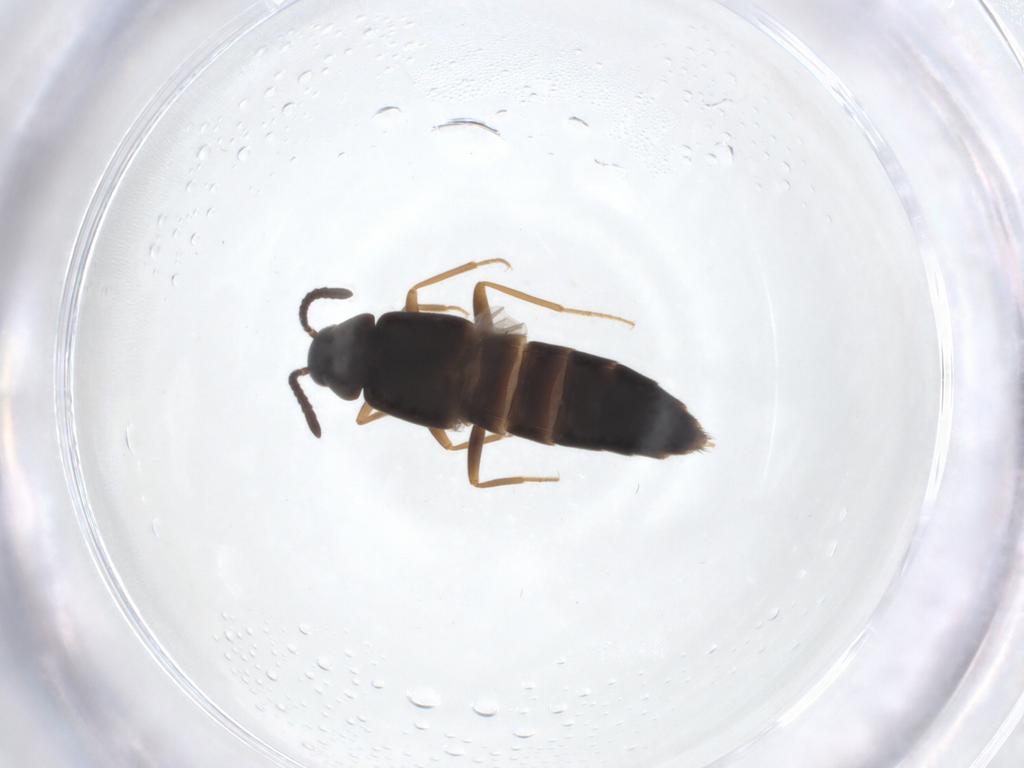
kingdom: Animalia
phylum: Arthropoda
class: Insecta
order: Coleoptera
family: Staphylinidae
